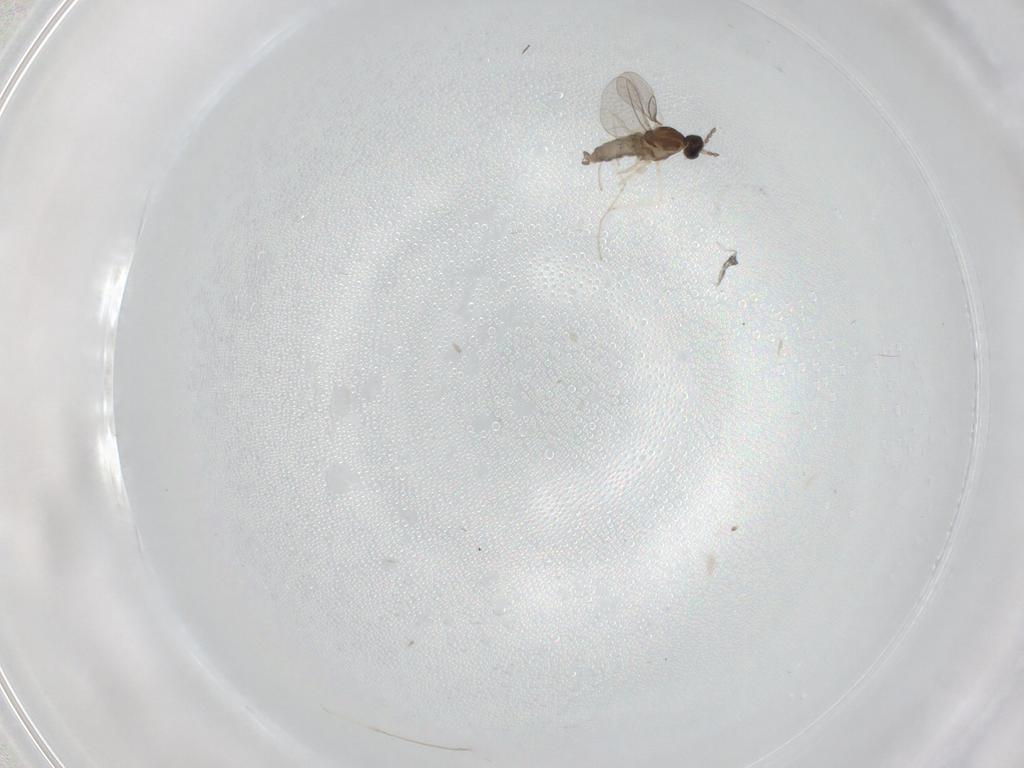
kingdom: Animalia
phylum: Arthropoda
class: Insecta
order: Diptera
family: Cecidomyiidae
